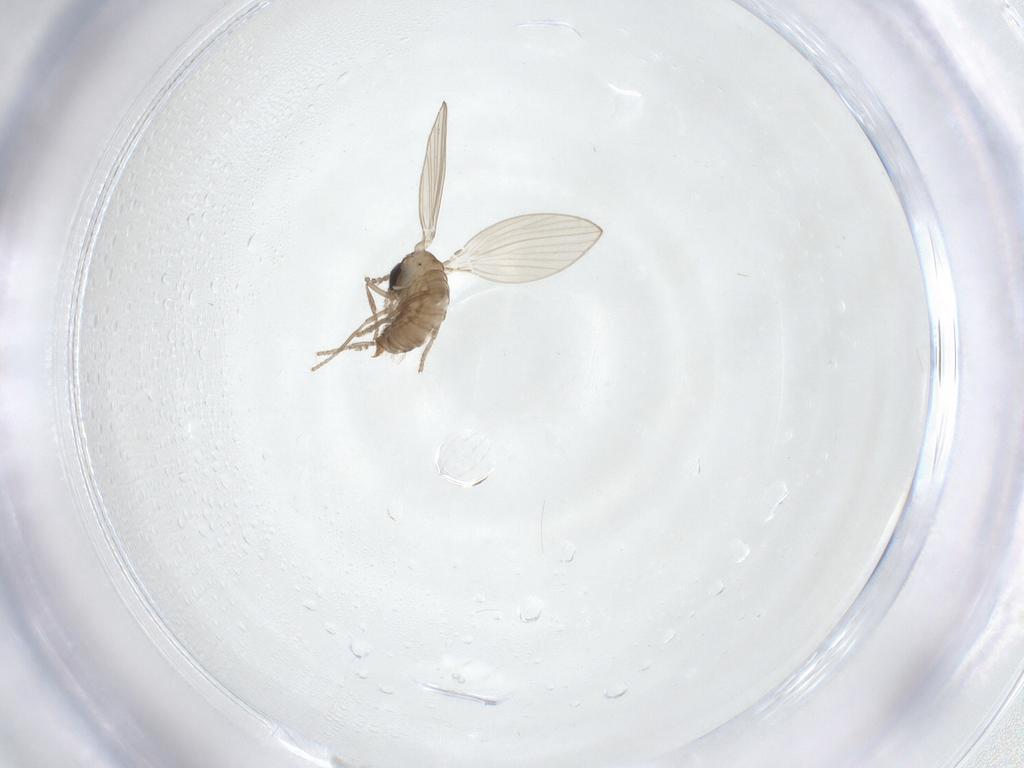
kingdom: Animalia
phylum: Arthropoda
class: Insecta
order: Diptera
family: Psychodidae
